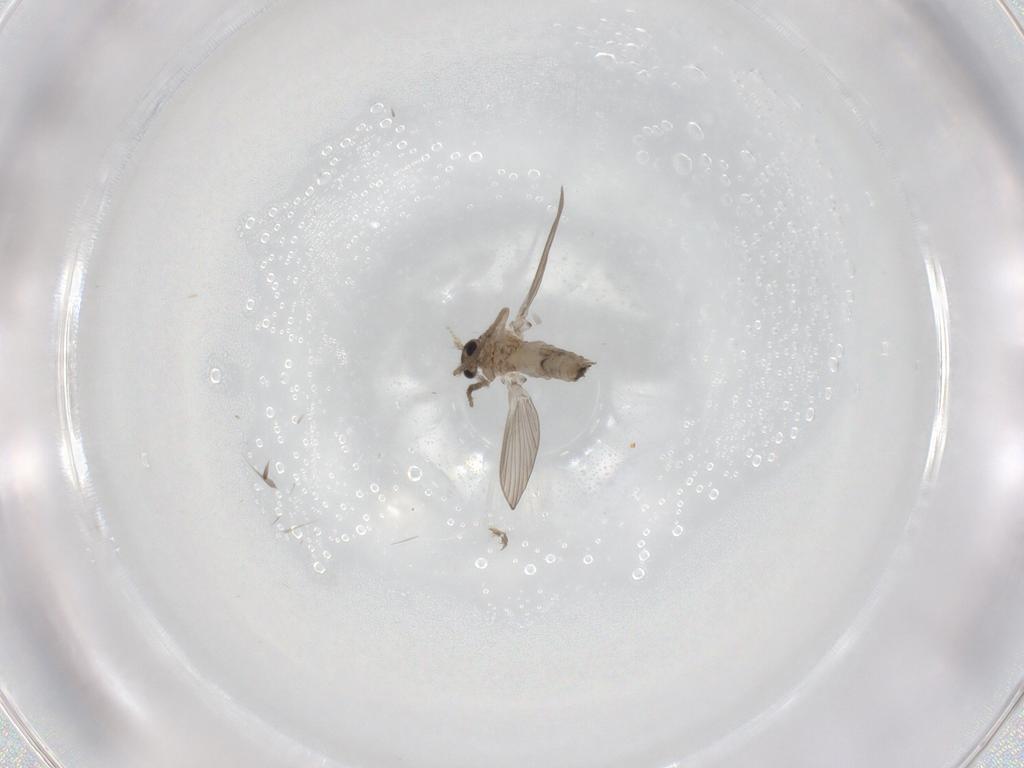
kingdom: Animalia
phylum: Arthropoda
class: Insecta
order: Diptera
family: Psychodidae
